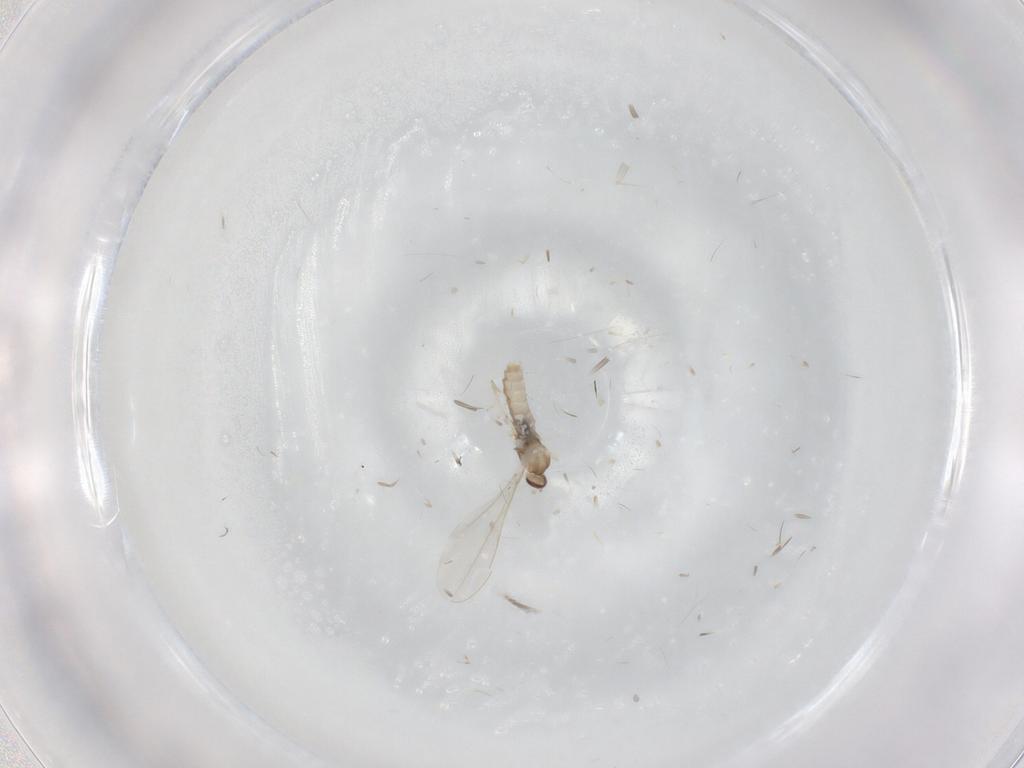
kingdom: Animalia
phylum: Arthropoda
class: Insecta
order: Diptera
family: Cecidomyiidae
